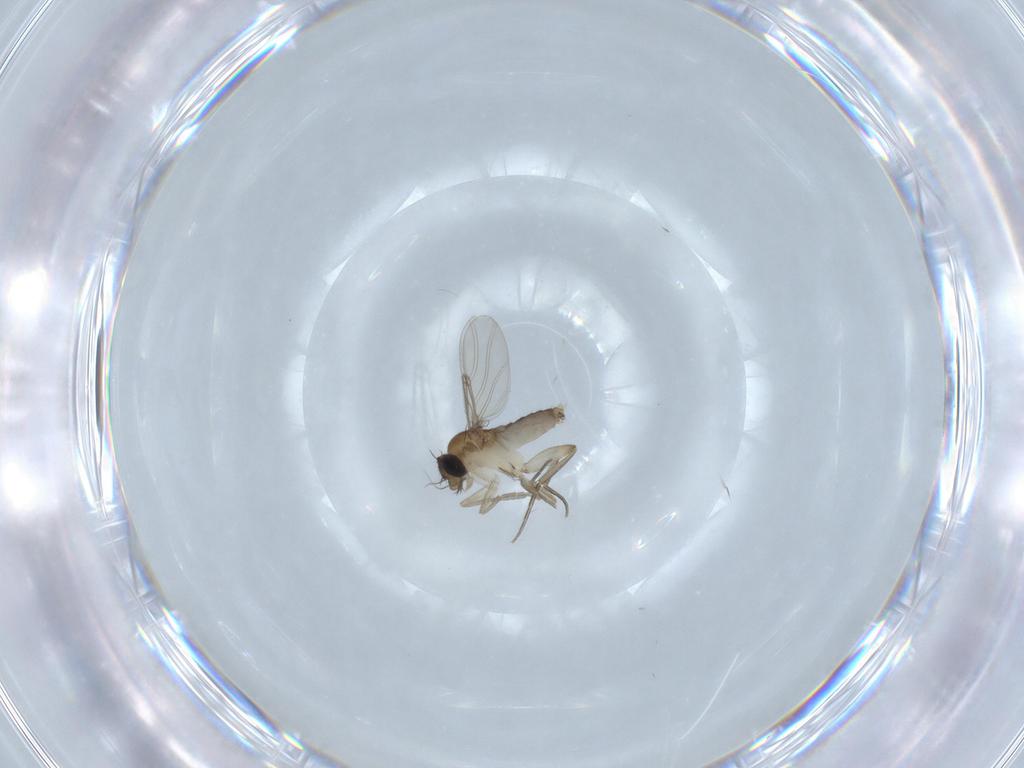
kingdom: Animalia
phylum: Arthropoda
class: Insecta
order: Diptera
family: Phoridae
